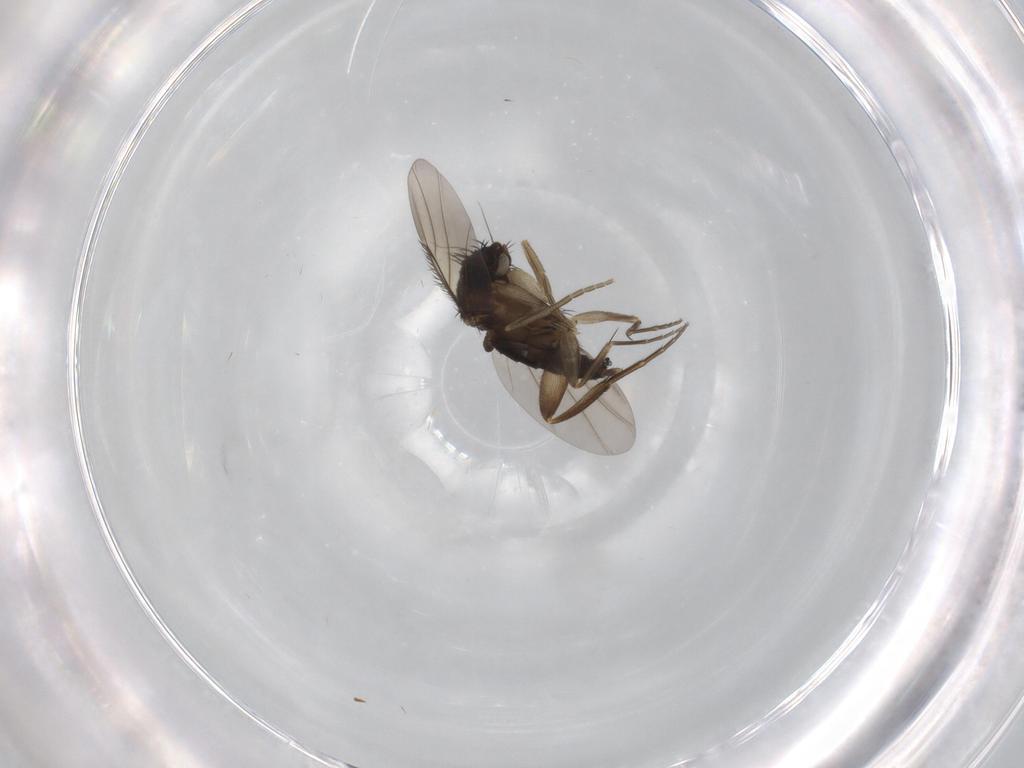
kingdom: Animalia
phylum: Arthropoda
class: Insecta
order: Diptera
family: Phoridae
